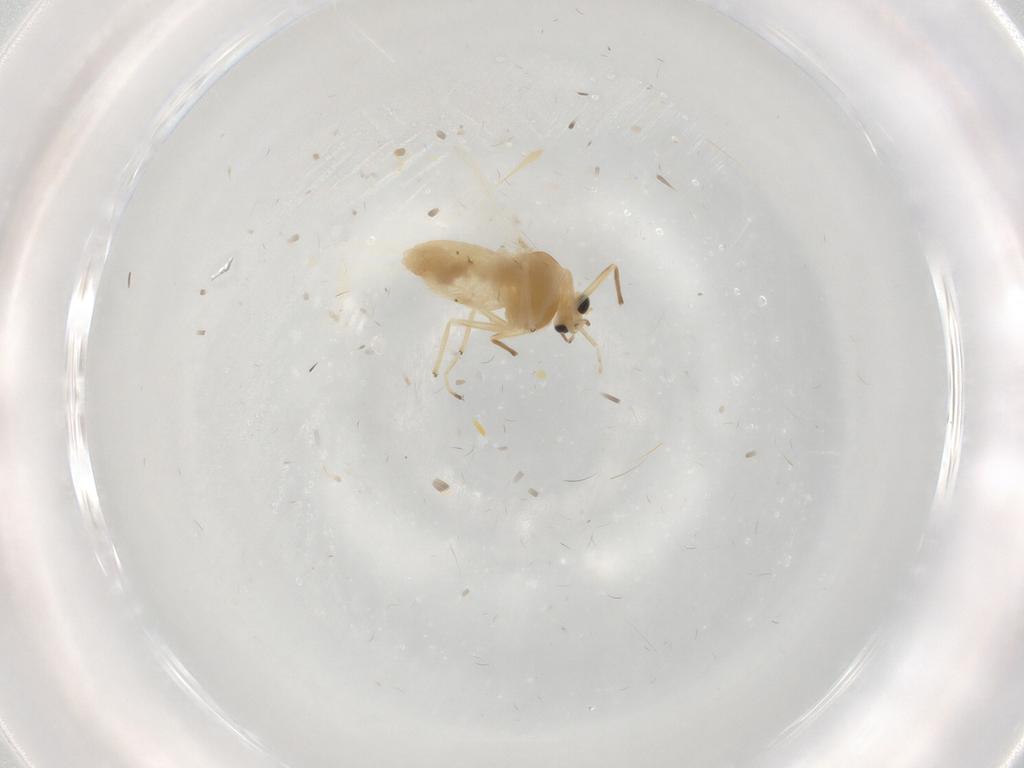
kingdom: Animalia
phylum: Arthropoda
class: Insecta
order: Diptera
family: Chironomidae
